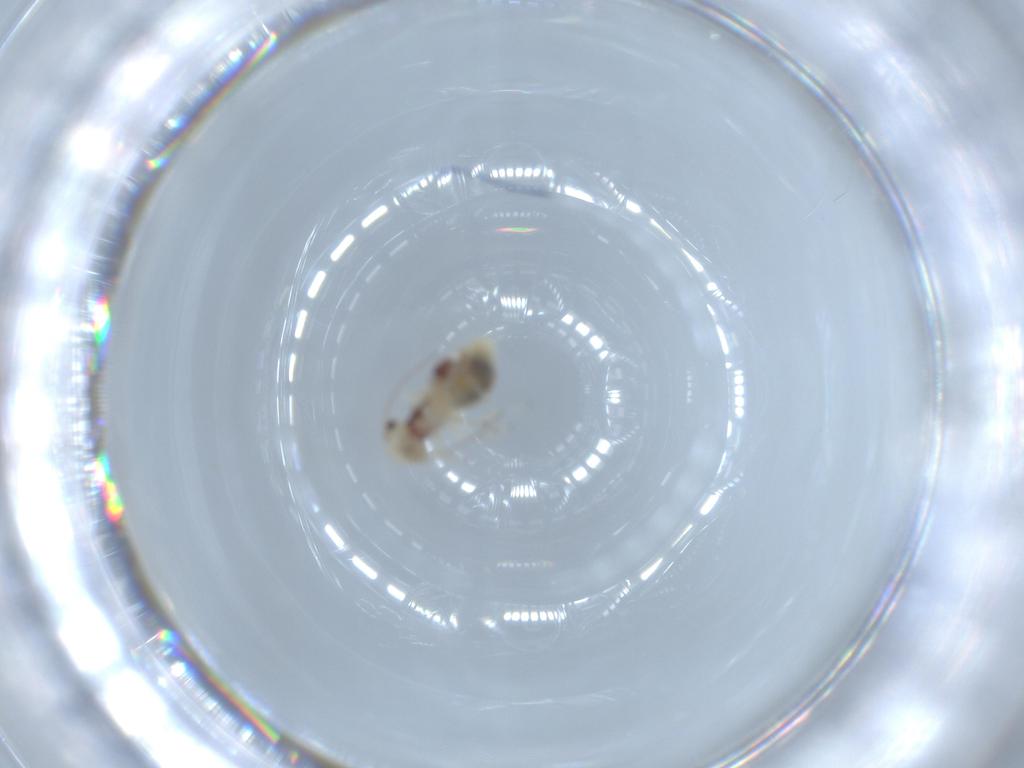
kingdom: Animalia
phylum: Arthropoda
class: Insecta
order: Psocodea
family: Caeciliusidae
